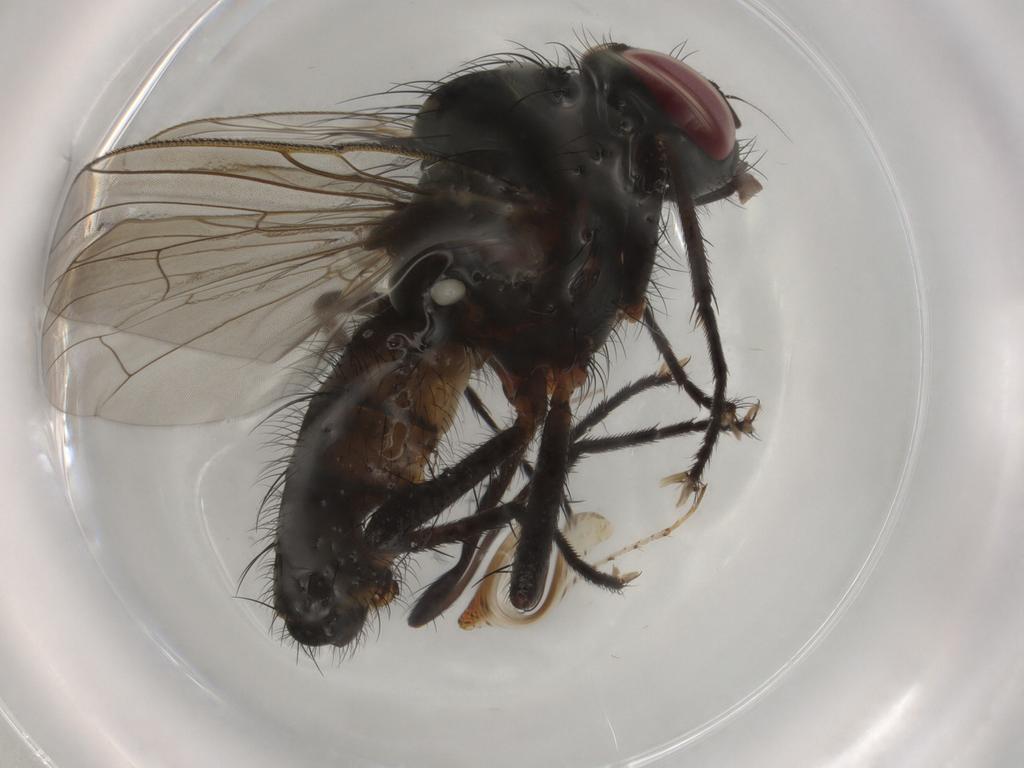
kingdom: Animalia
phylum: Arthropoda
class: Insecta
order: Diptera
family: Anthomyiidae
